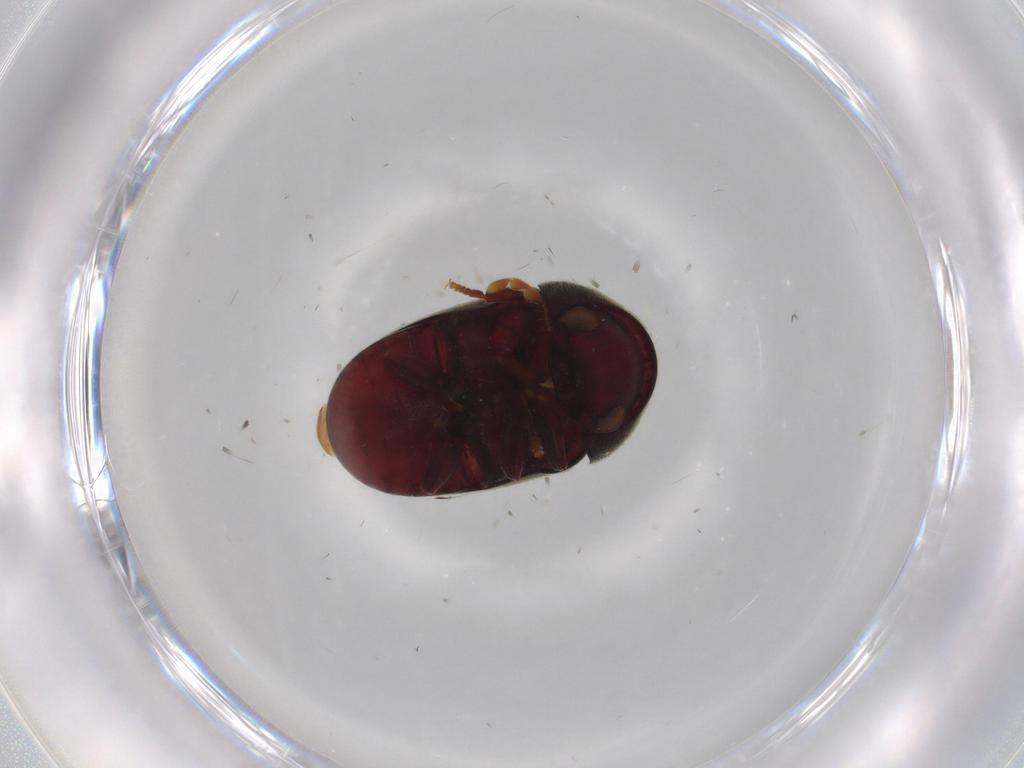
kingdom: Animalia
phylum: Arthropoda
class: Insecta
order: Coleoptera
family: Ptinidae
